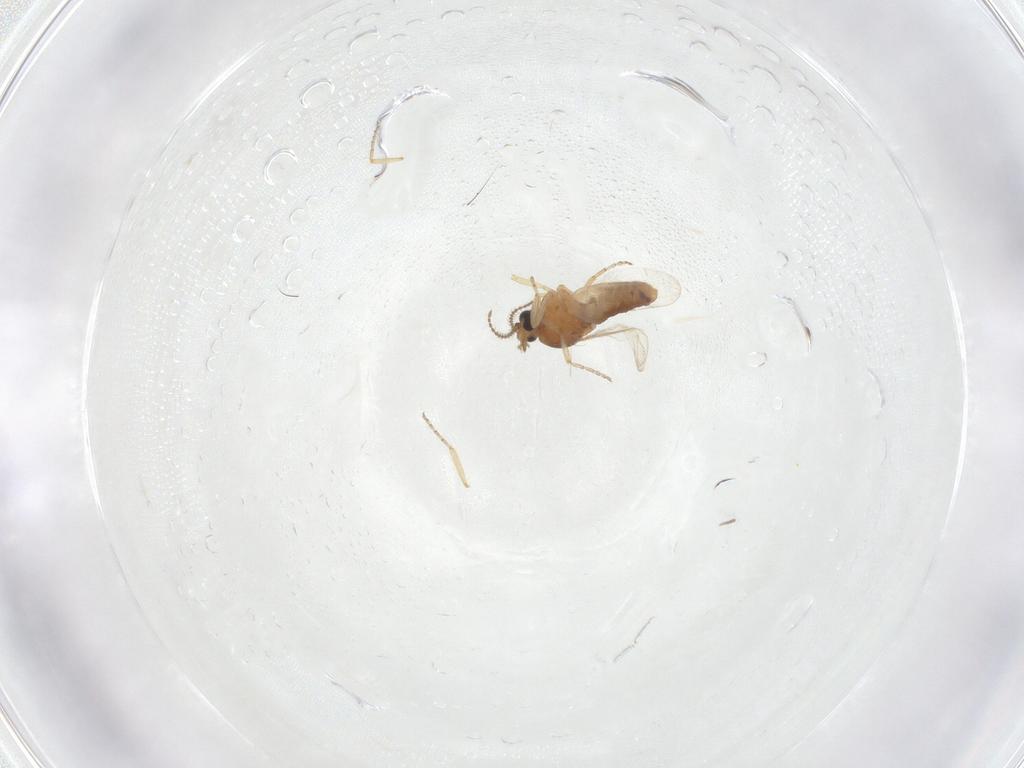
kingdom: Animalia
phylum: Arthropoda
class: Insecta
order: Diptera
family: Ceratopogonidae
